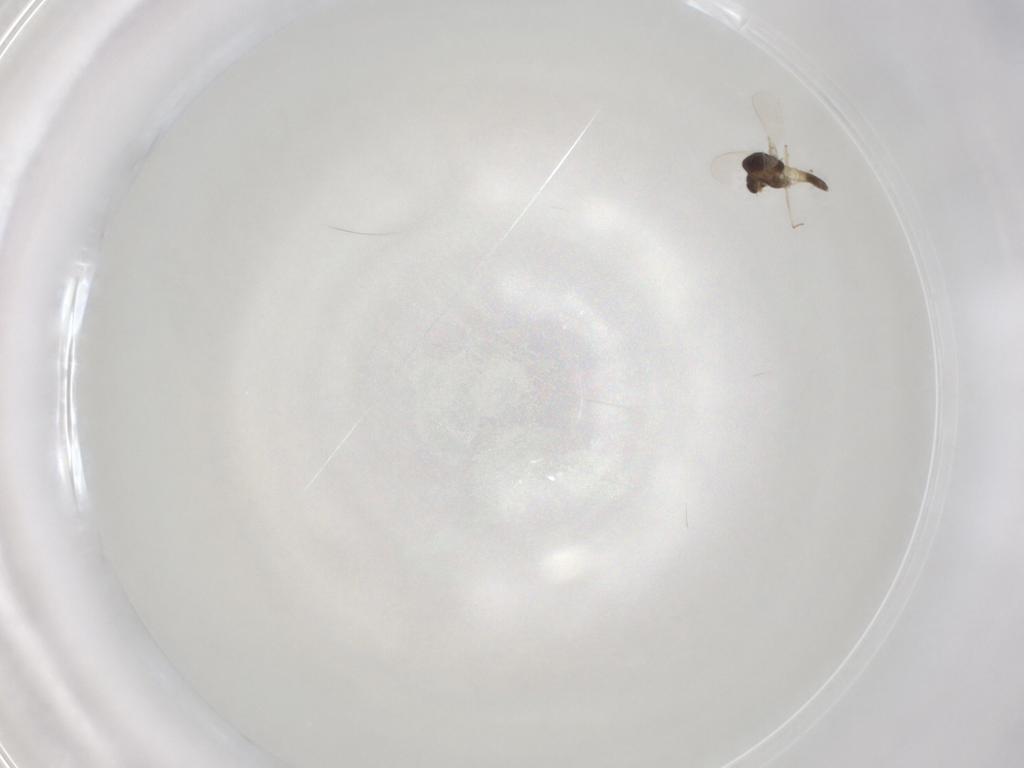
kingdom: Animalia
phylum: Arthropoda
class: Insecta
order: Diptera
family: Chironomidae
